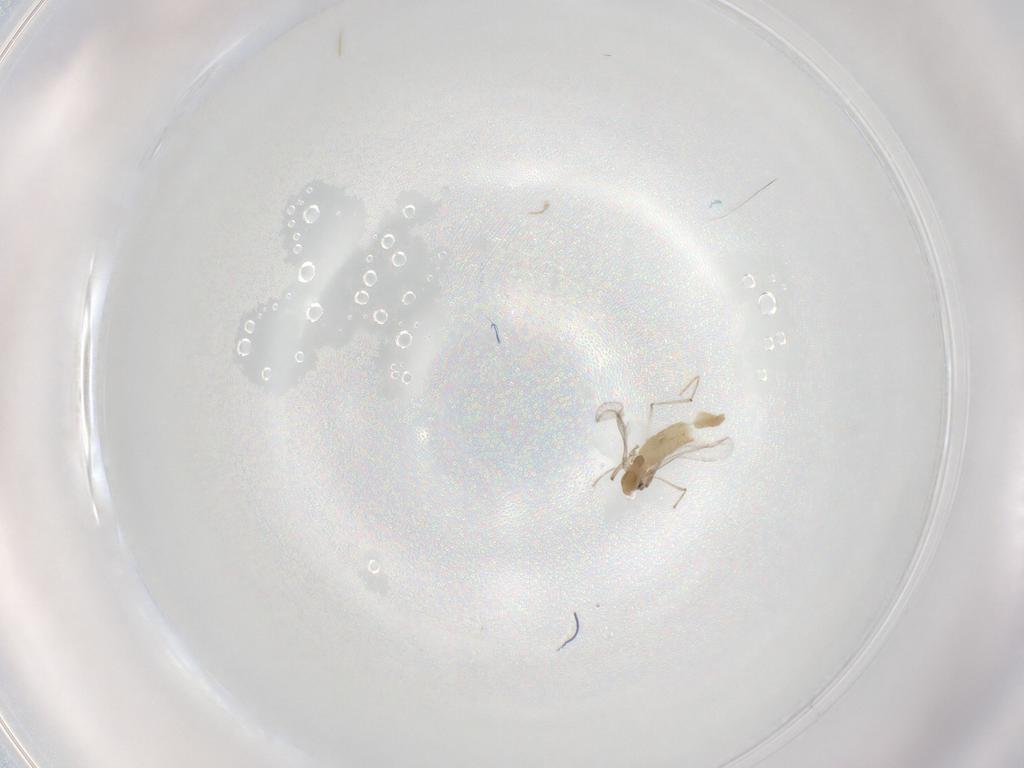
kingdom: Animalia
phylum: Arthropoda
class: Insecta
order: Diptera
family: Chironomidae
